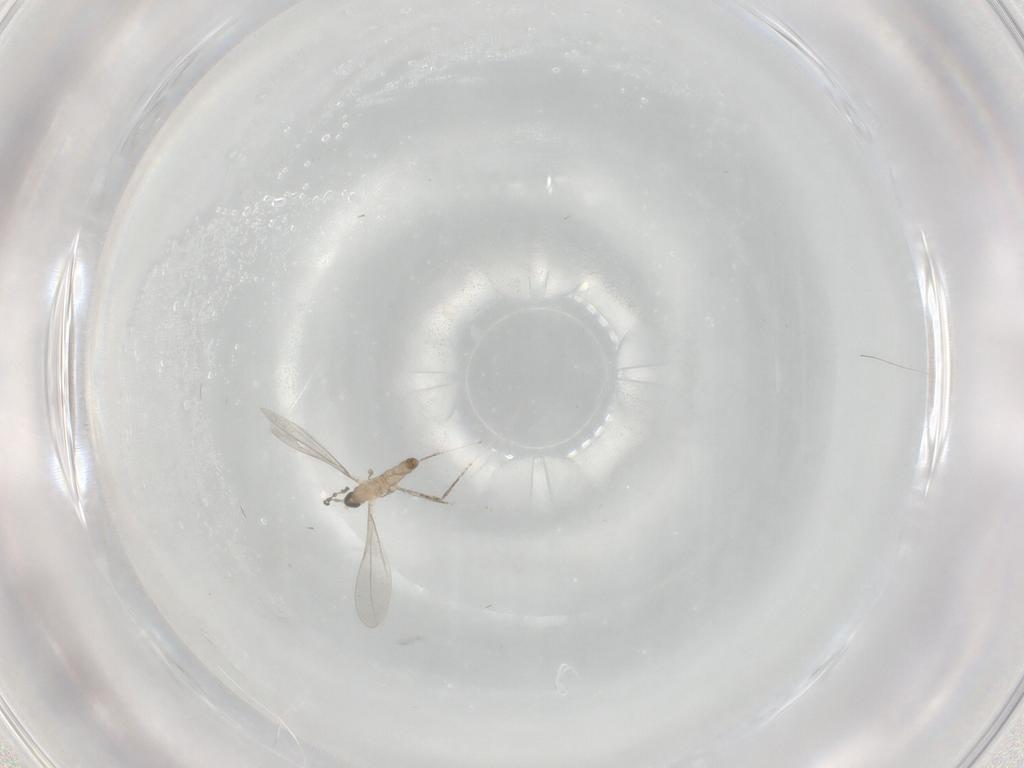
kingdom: Animalia
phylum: Arthropoda
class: Insecta
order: Diptera
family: Cecidomyiidae
